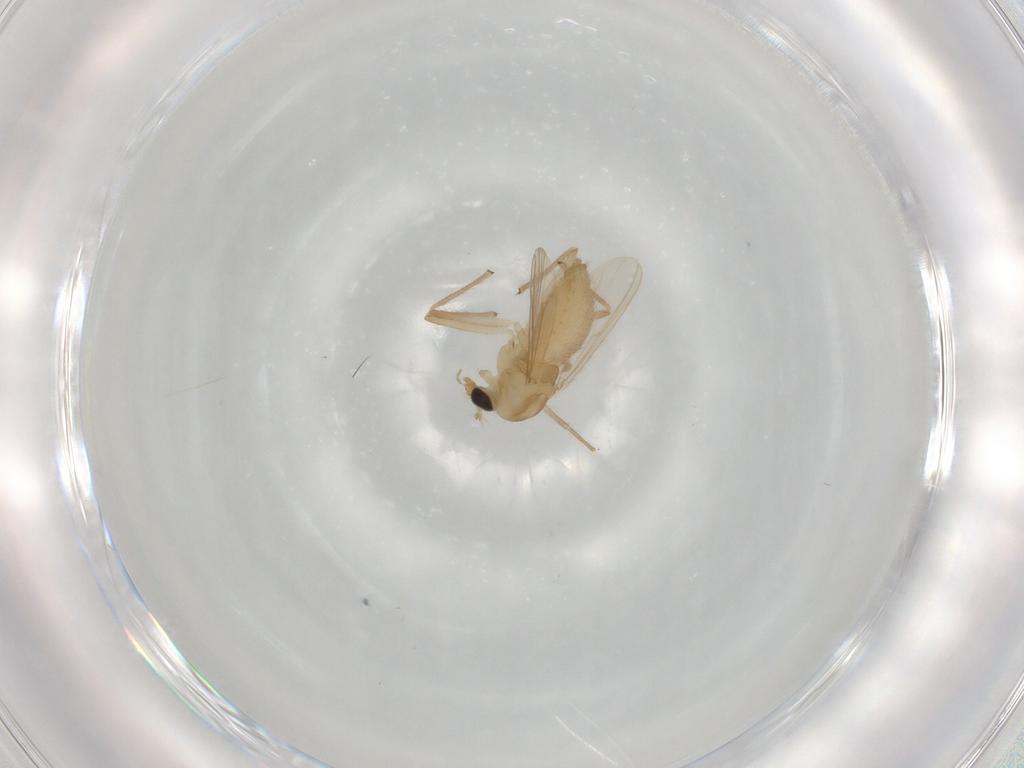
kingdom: Animalia
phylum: Arthropoda
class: Insecta
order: Diptera
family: Chironomidae
